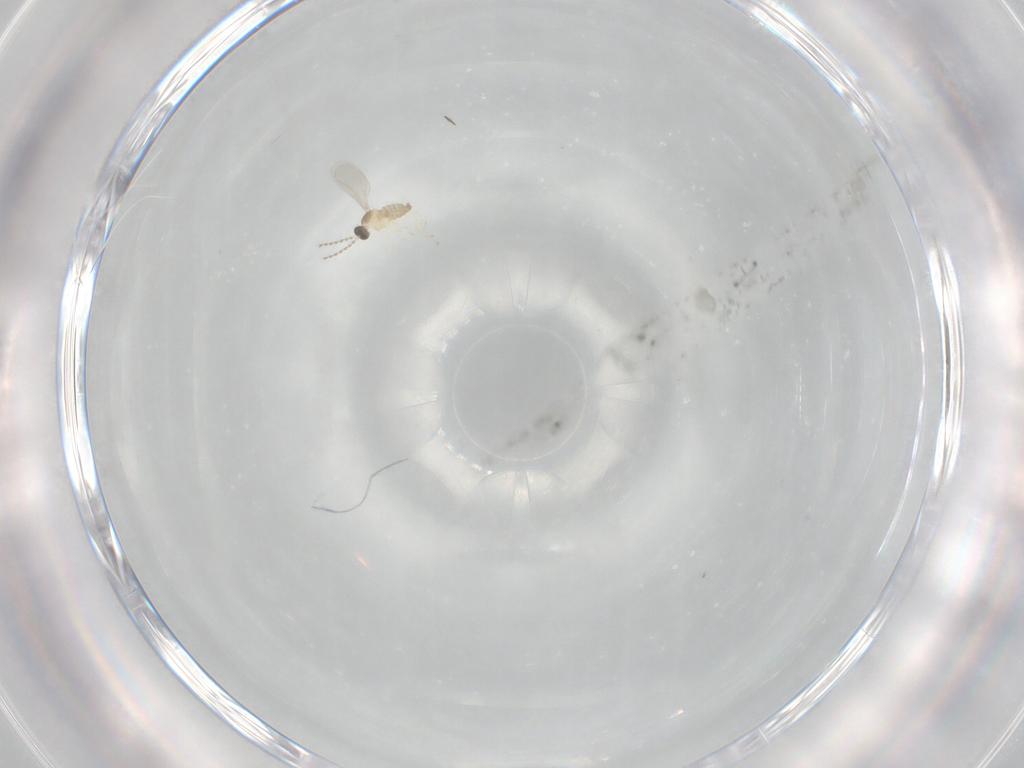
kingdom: Animalia
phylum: Arthropoda
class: Insecta
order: Diptera
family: Cecidomyiidae
